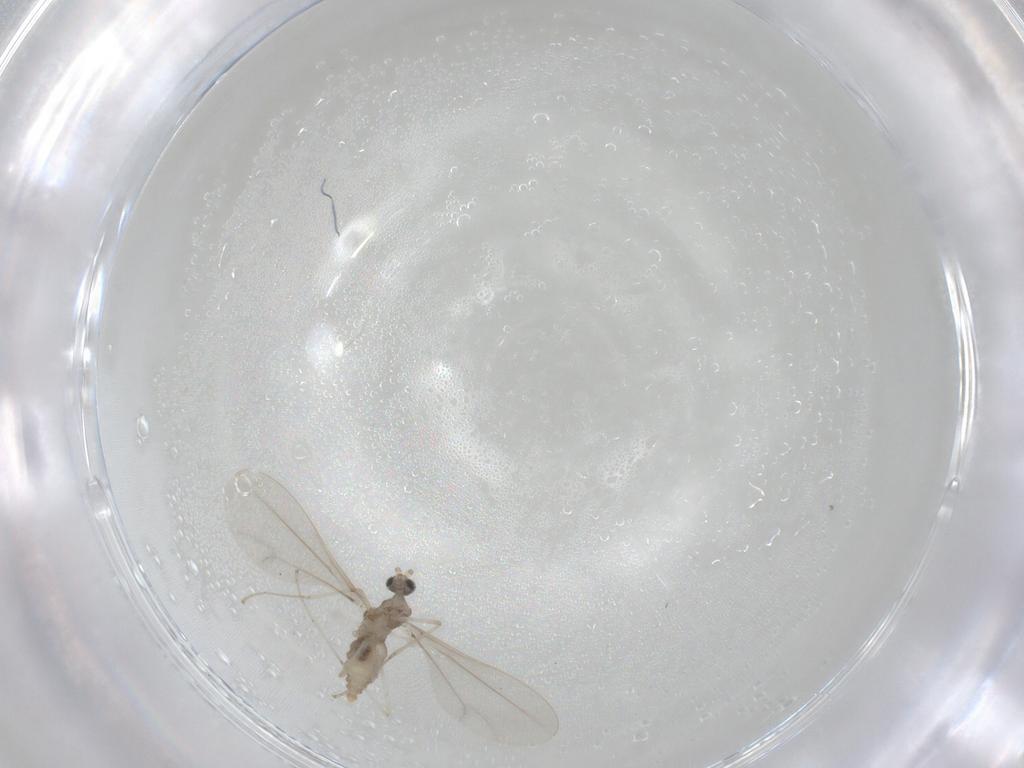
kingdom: Animalia
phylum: Arthropoda
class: Insecta
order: Diptera
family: Cecidomyiidae
